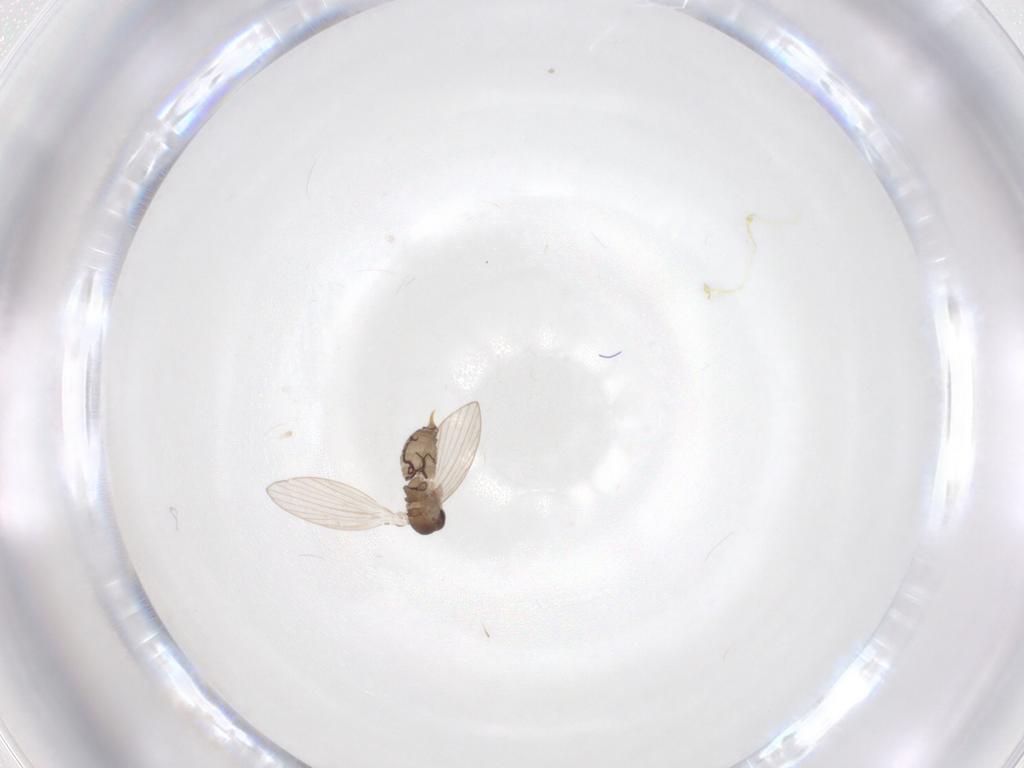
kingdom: Animalia
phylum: Arthropoda
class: Insecta
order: Diptera
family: Psychodidae
